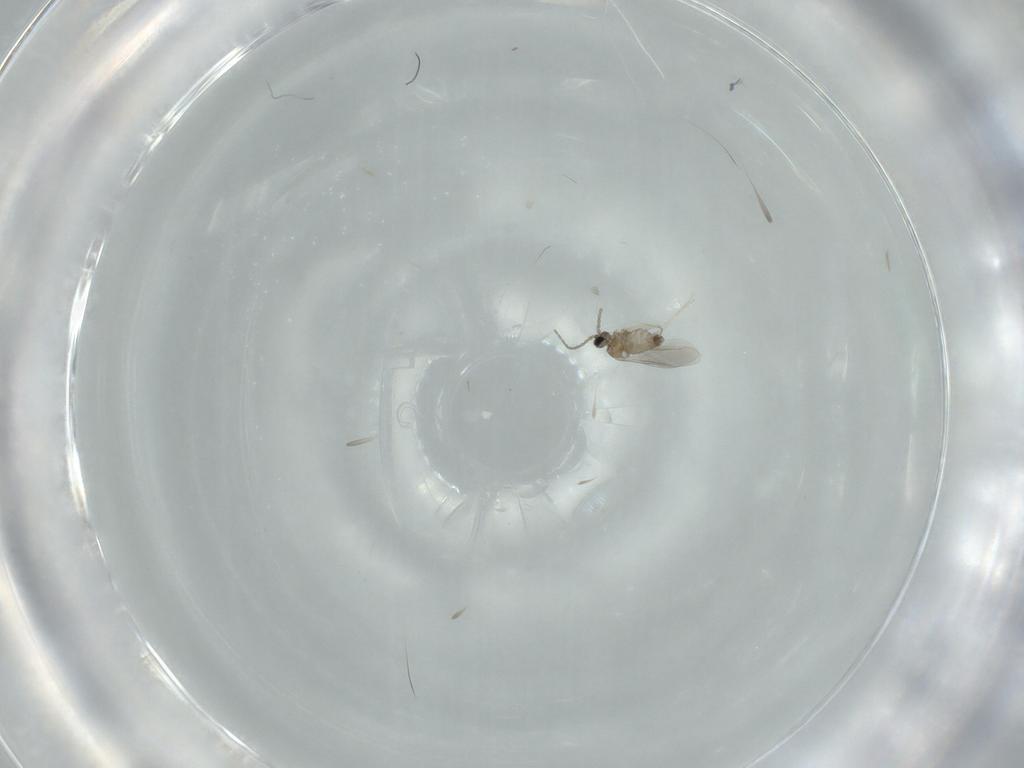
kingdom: Animalia
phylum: Arthropoda
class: Insecta
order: Diptera
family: Cecidomyiidae
